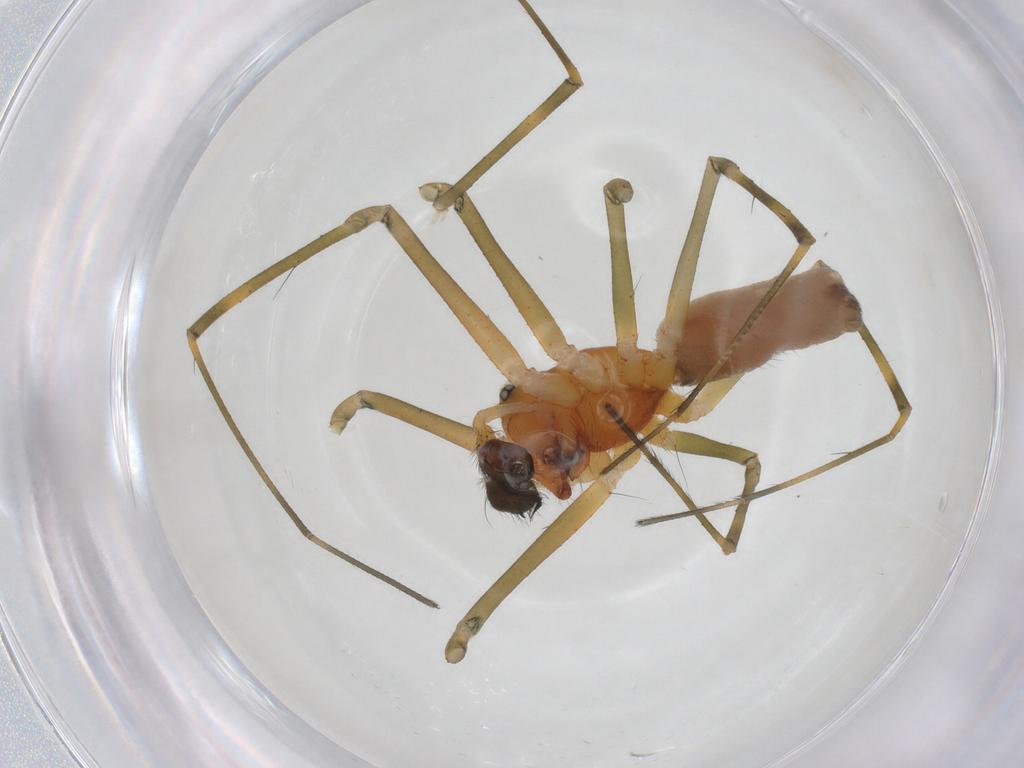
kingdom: Animalia
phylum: Arthropoda
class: Arachnida
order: Araneae
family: Linyphiidae
